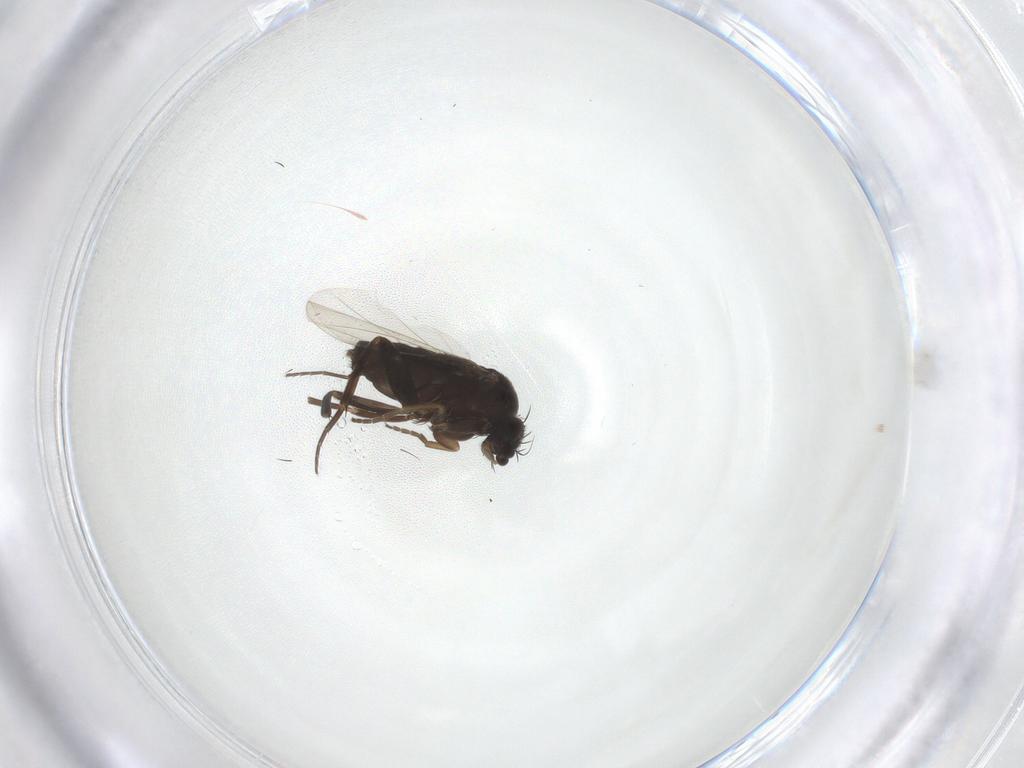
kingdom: Animalia
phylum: Arthropoda
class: Insecta
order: Diptera
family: Phoridae
